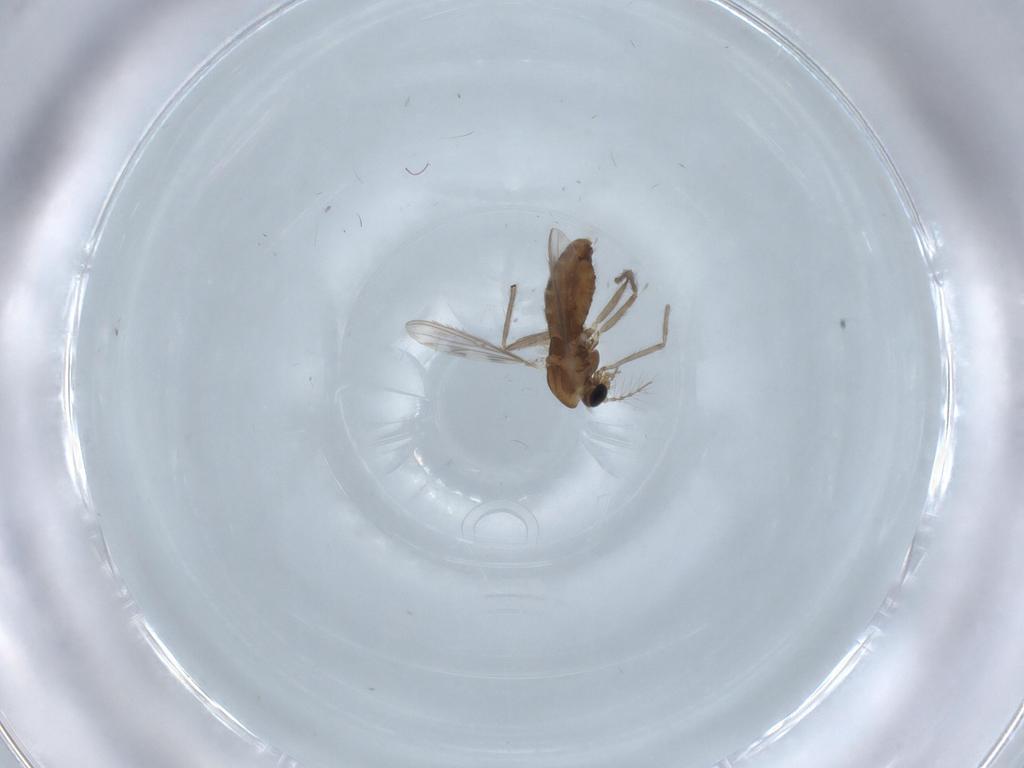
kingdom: Animalia
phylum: Arthropoda
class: Insecta
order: Diptera
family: Chironomidae
